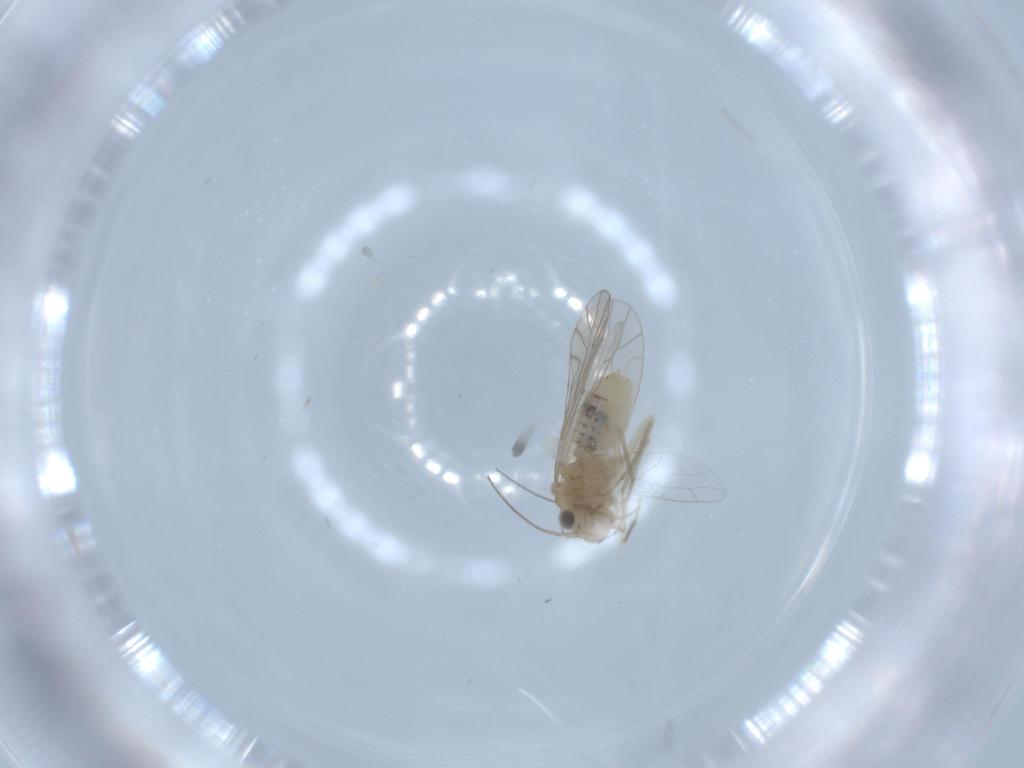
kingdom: Animalia
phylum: Arthropoda
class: Insecta
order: Psocodea
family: Lachesillidae
